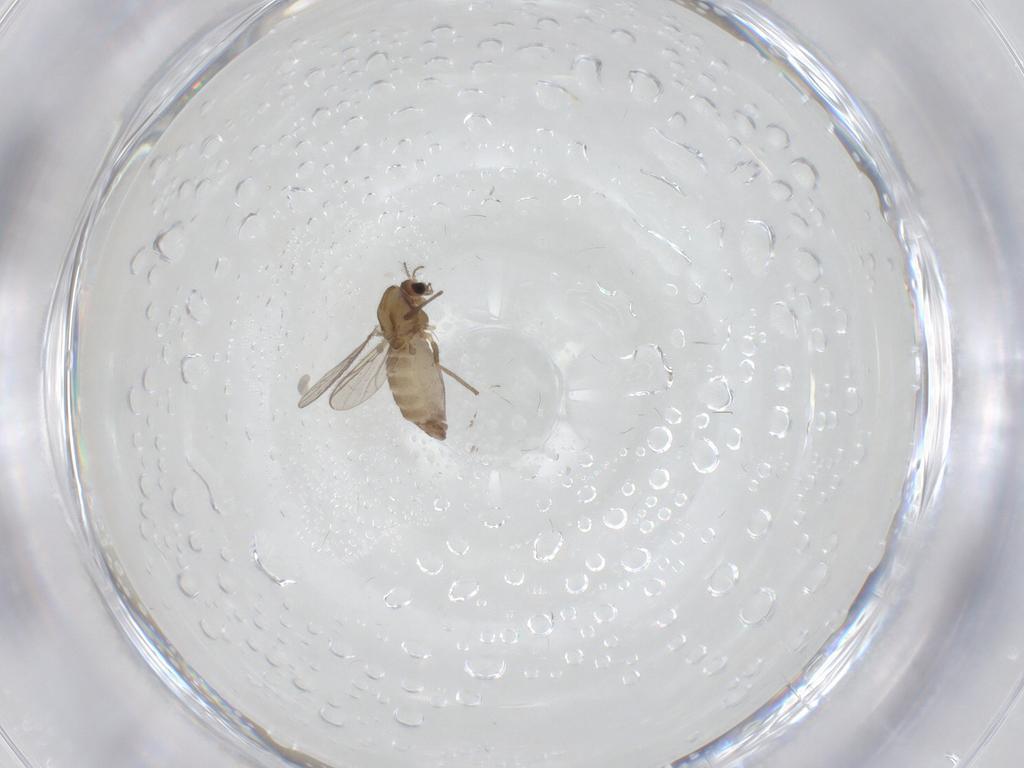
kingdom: Animalia
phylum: Arthropoda
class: Insecta
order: Diptera
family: Chironomidae
